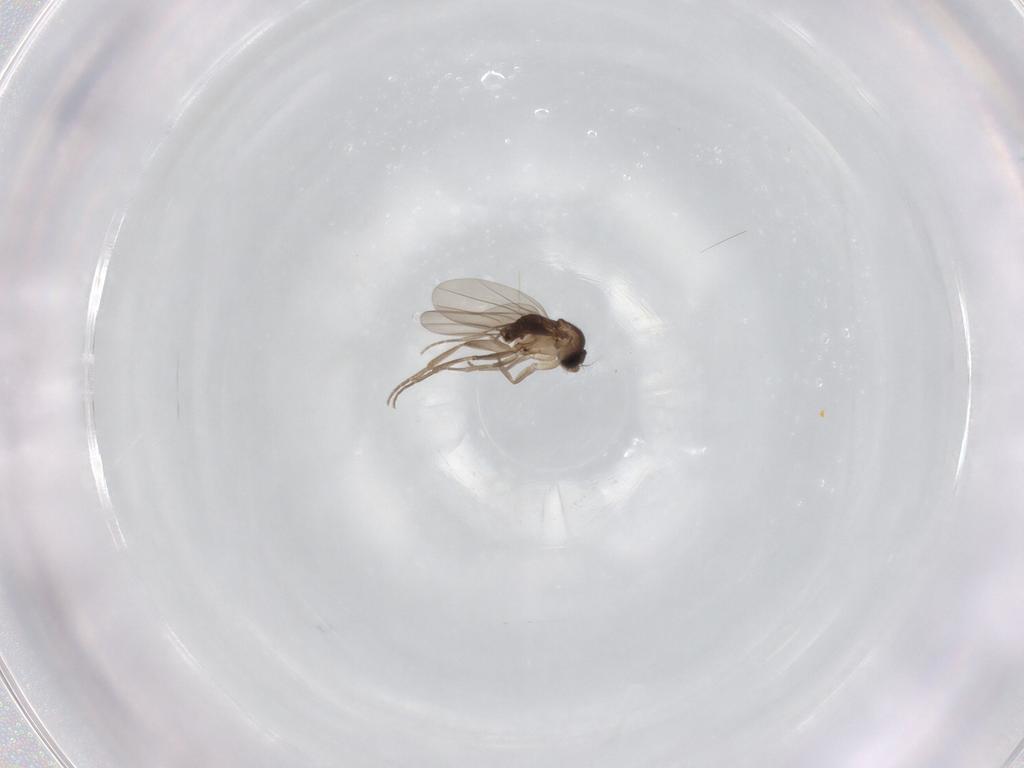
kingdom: Animalia
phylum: Arthropoda
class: Insecta
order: Diptera
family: Phoridae
